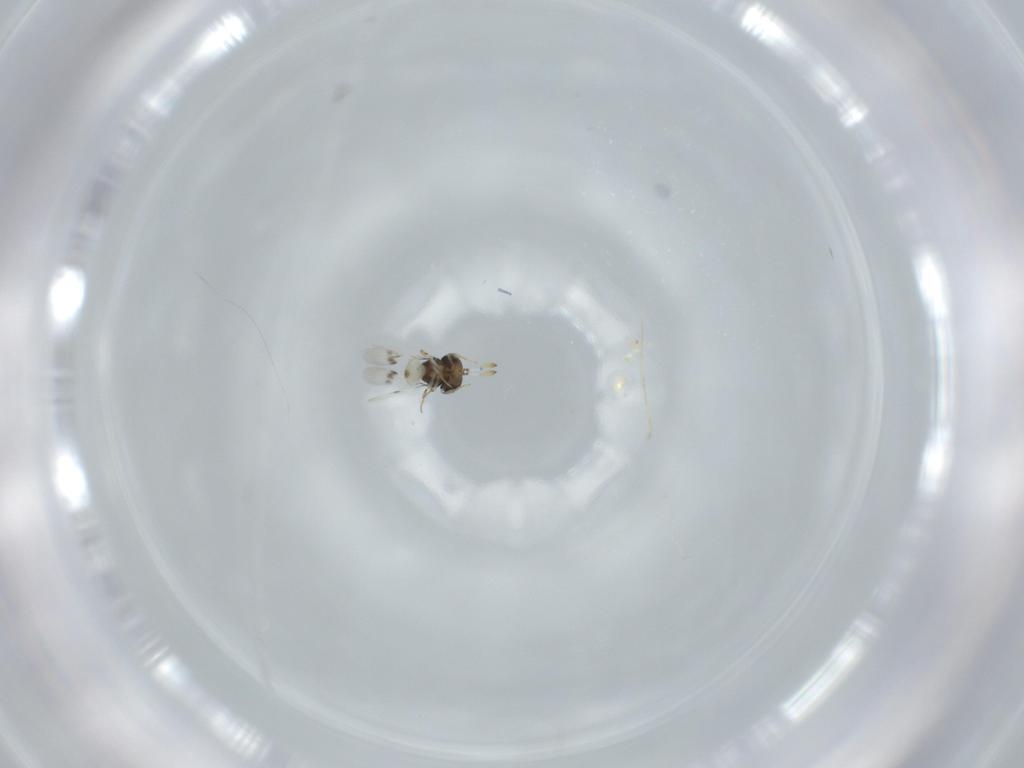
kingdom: Animalia
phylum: Arthropoda
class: Insecta
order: Hymenoptera
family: Scelionidae
